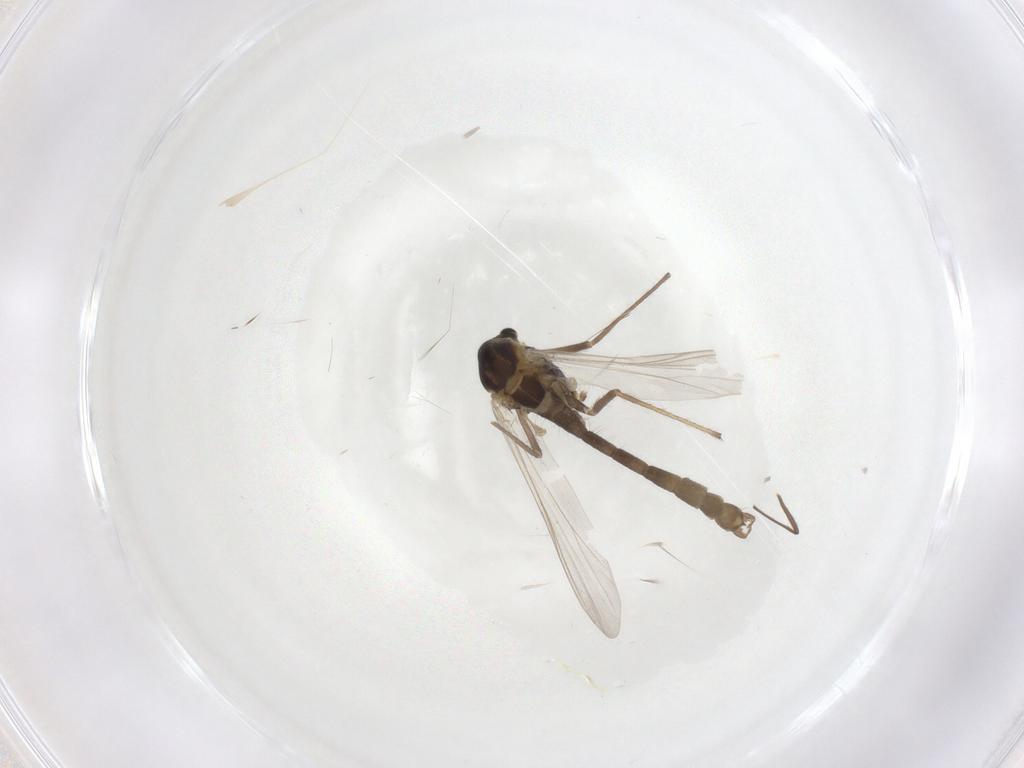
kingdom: Animalia
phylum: Arthropoda
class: Insecta
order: Diptera
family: Chironomidae
